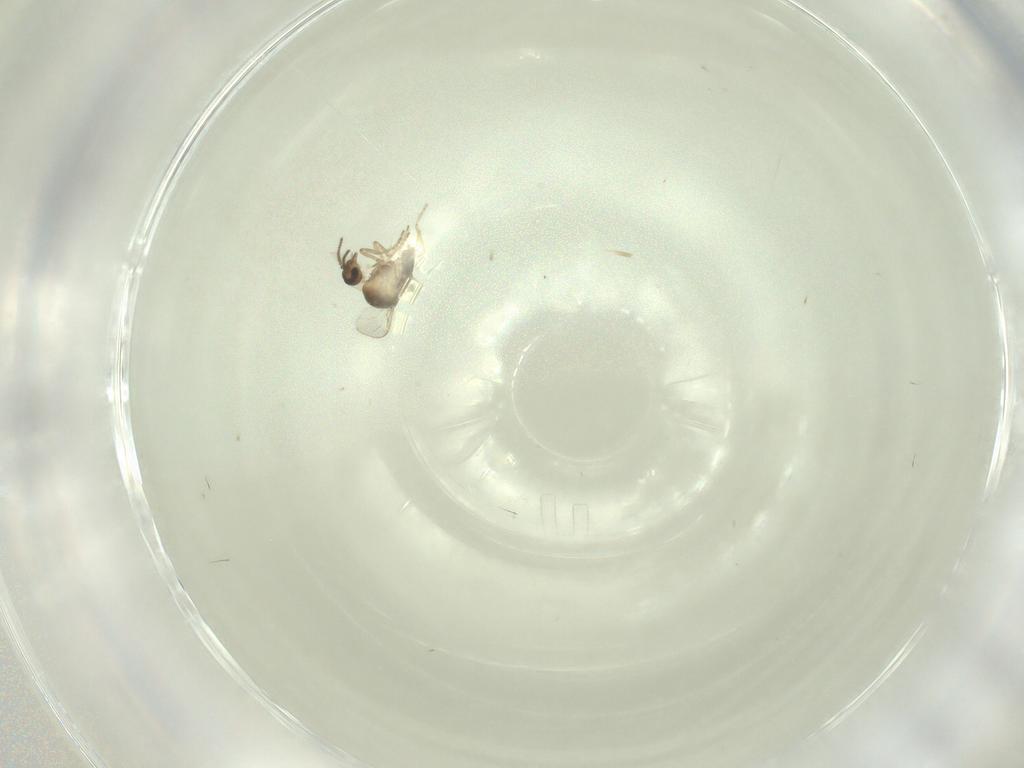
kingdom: Animalia
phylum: Arthropoda
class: Insecta
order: Diptera
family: Ceratopogonidae
